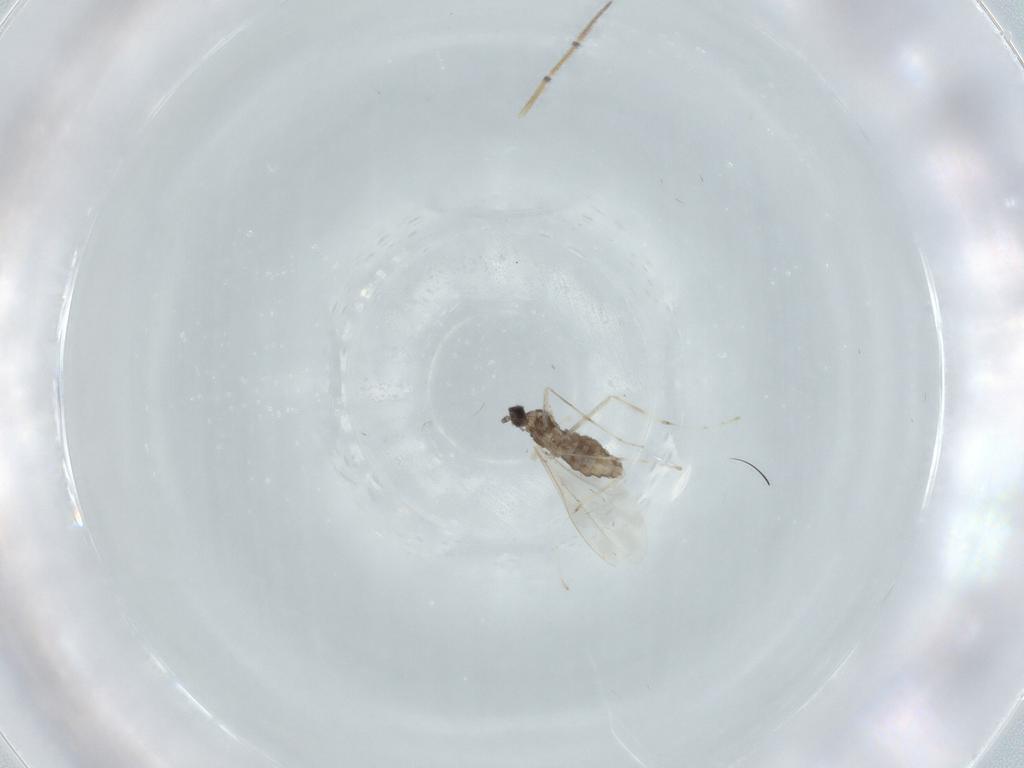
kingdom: Animalia
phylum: Arthropoda
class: Insecta
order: Diptera
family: Cecidomyiidae
